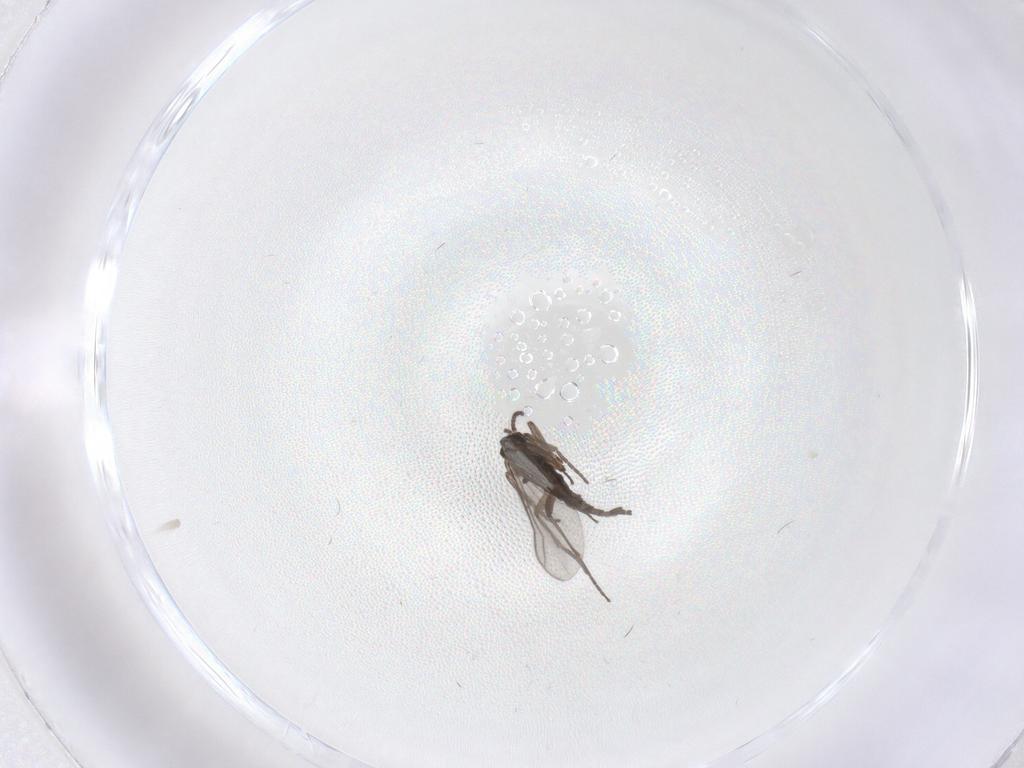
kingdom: Animalia
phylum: Arthropoda
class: Insecta
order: Diptera
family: Sciaridae
